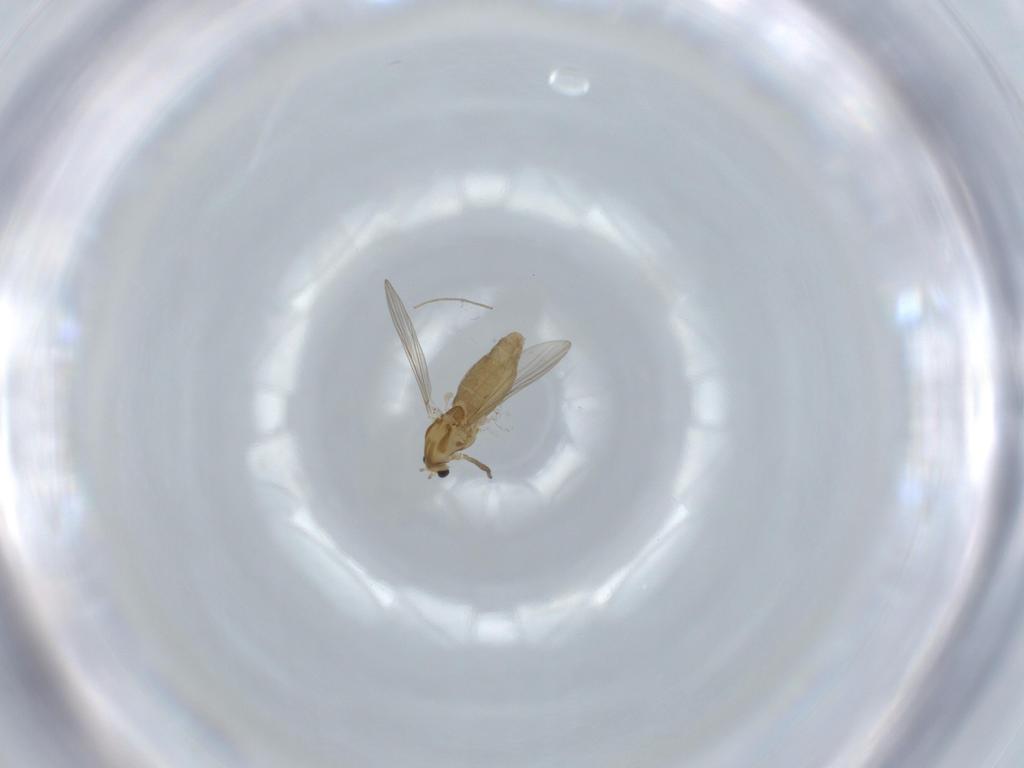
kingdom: Animalia
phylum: Arthropoda
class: Insecta
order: Diptera
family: Chironomidae
